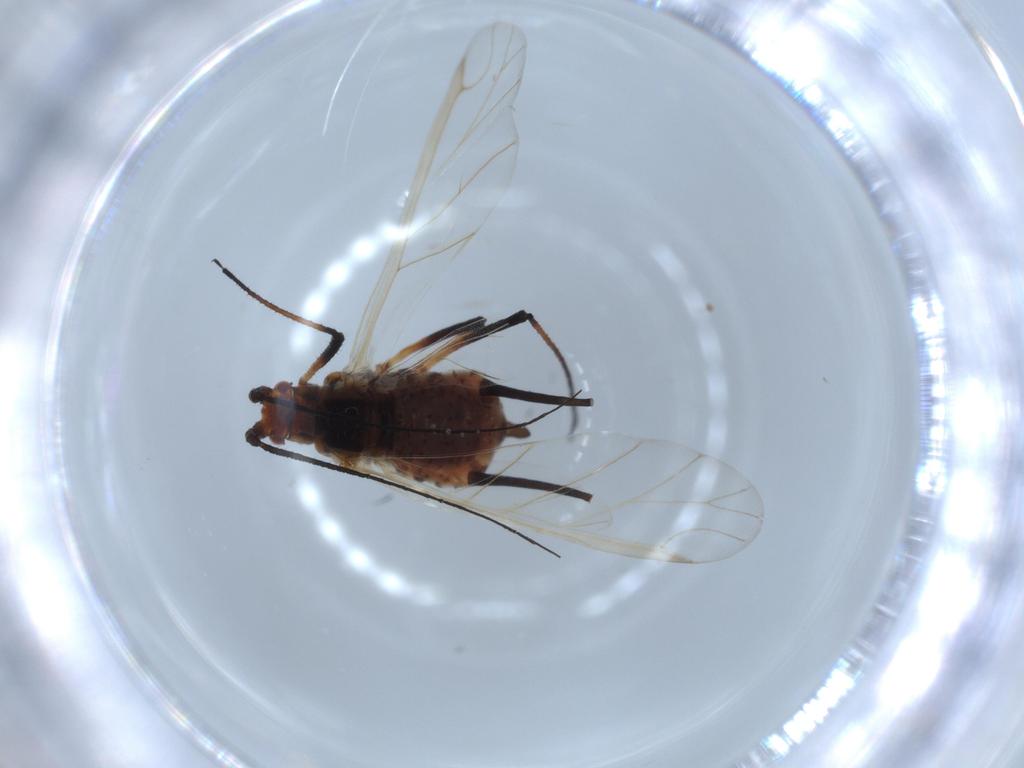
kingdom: Animalia
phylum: Arthropoda
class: Insecta
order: Hemiptera
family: Aphididae
